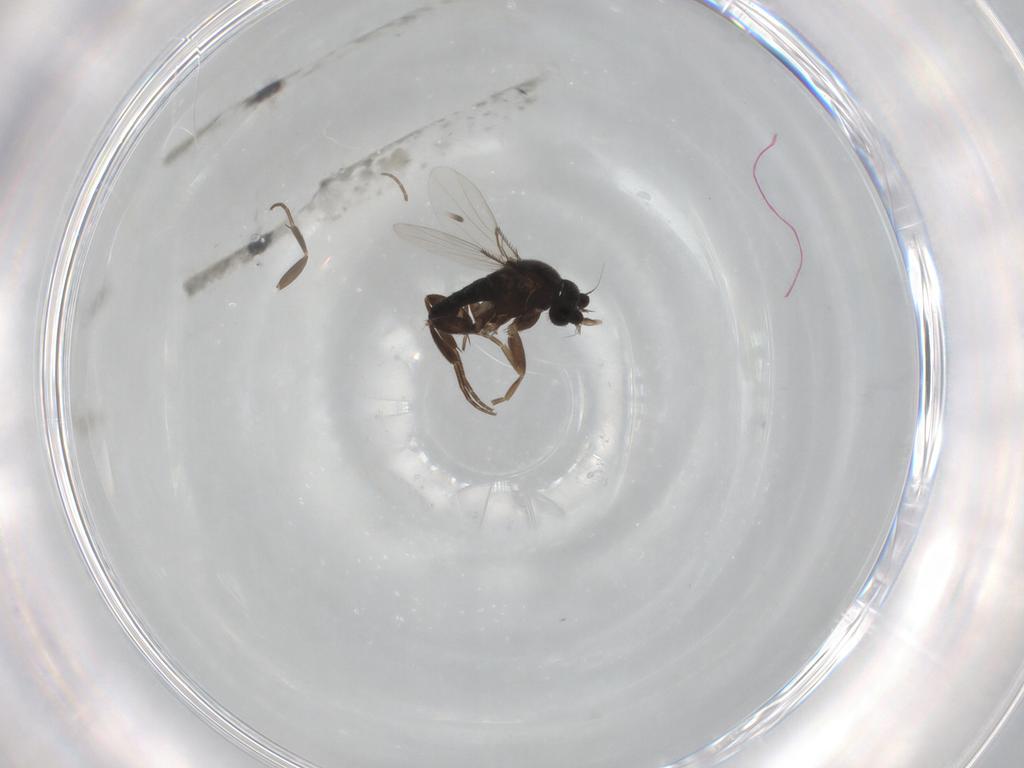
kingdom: Animalia
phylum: Arthropoda
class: Insecta
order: Diptera
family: Phoridae
